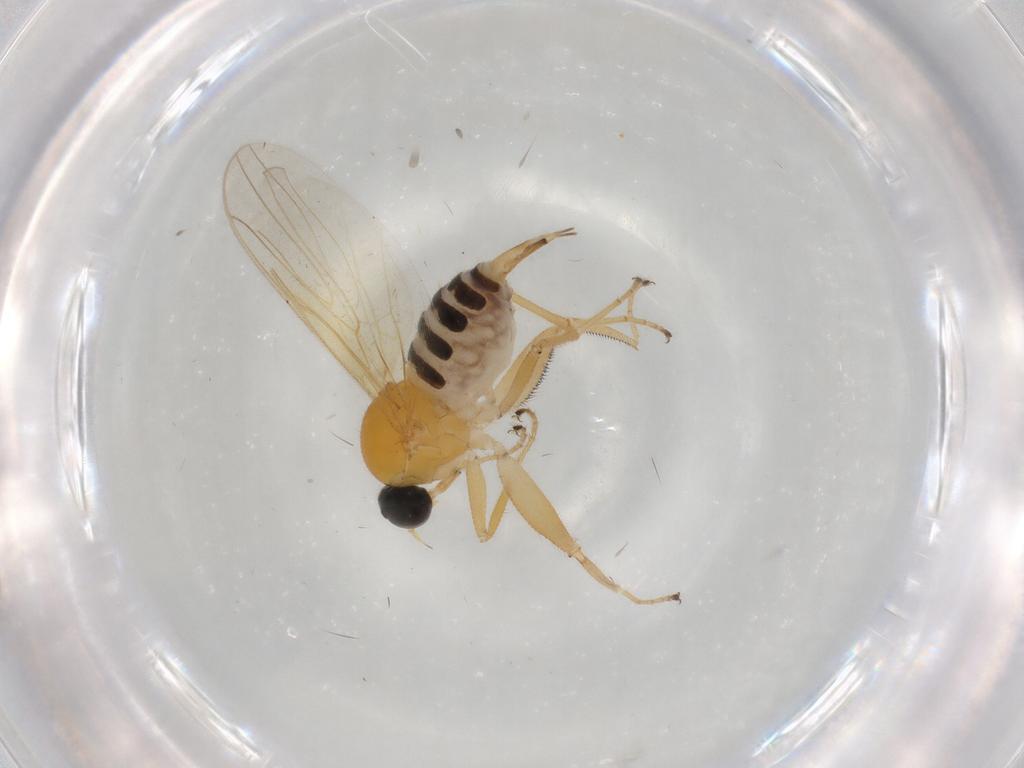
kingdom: Animalia
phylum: Arthropoda
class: Insecta
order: Diptera
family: Hybotidae
